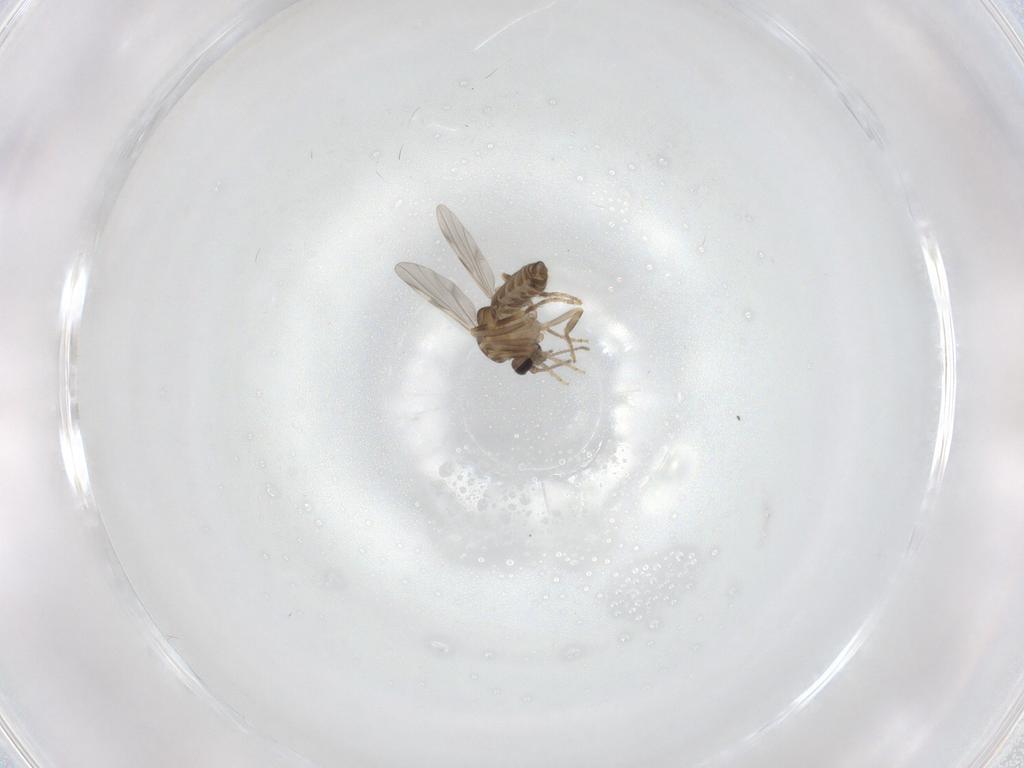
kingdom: Animalia
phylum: Arthropoda
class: Insecta
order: Diptera
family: Ceratopogonidae
